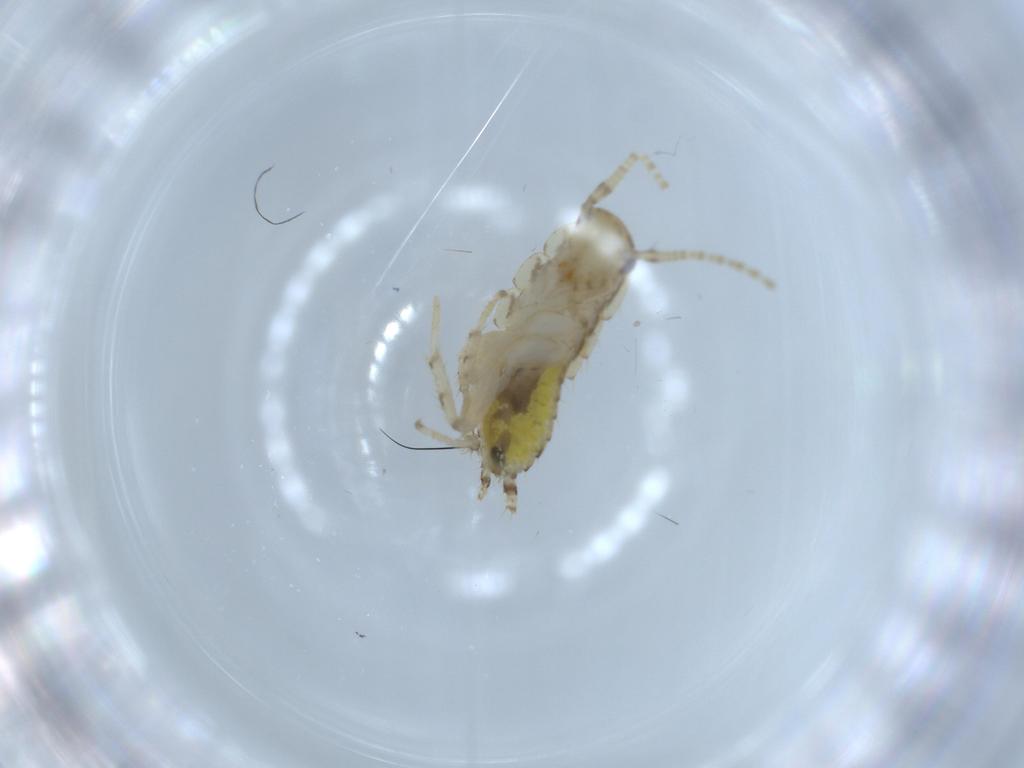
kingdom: Animalia
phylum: Arthropoda
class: Insecta
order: Blattodea
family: Ectobiidae
